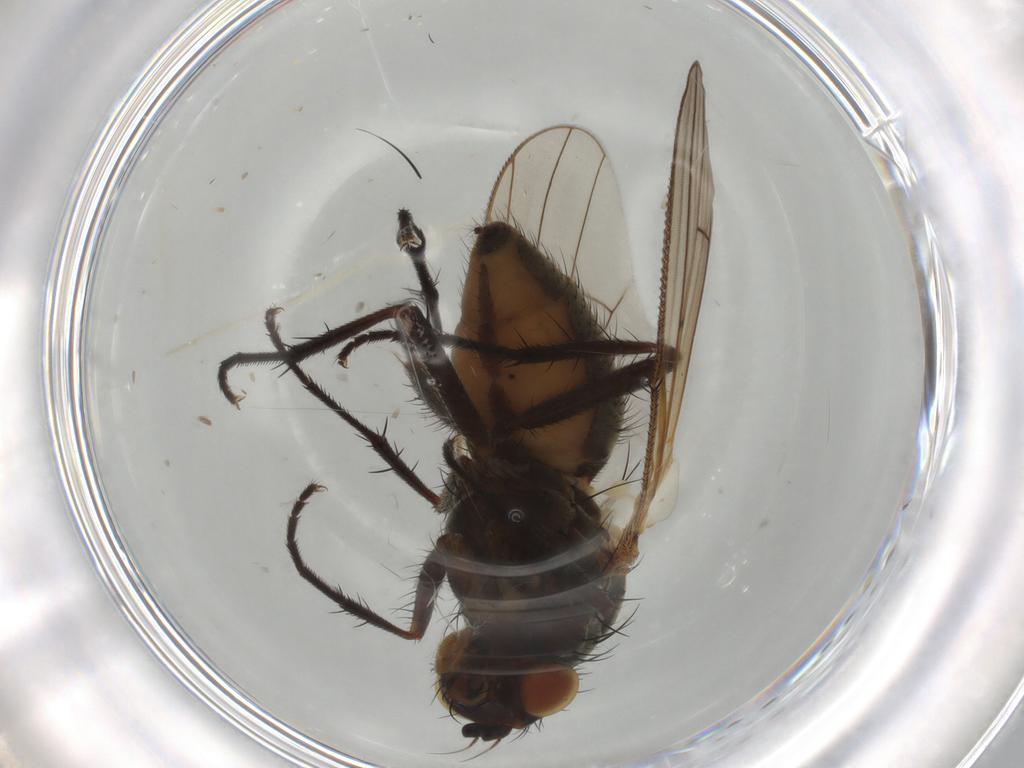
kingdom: Animalia
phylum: Arthropoda
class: Insecta
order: Diptera
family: Anthomyiidae
